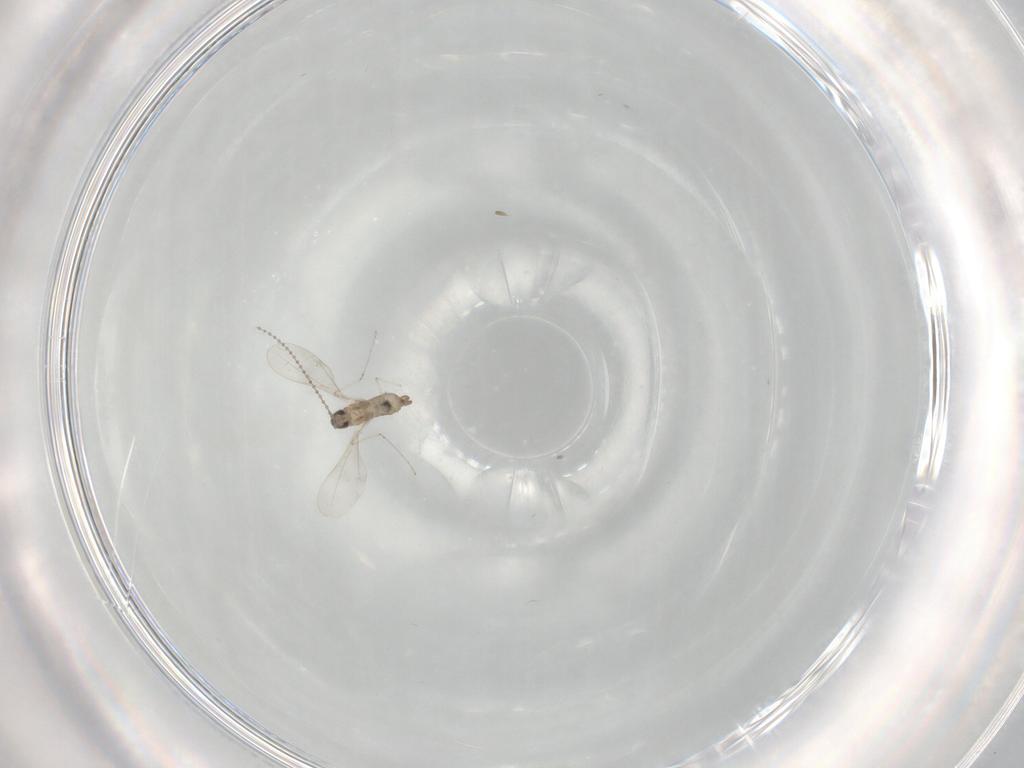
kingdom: Animalia
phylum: Arthropoda
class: Insecta
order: Diptera
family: Cecidomyiidae
